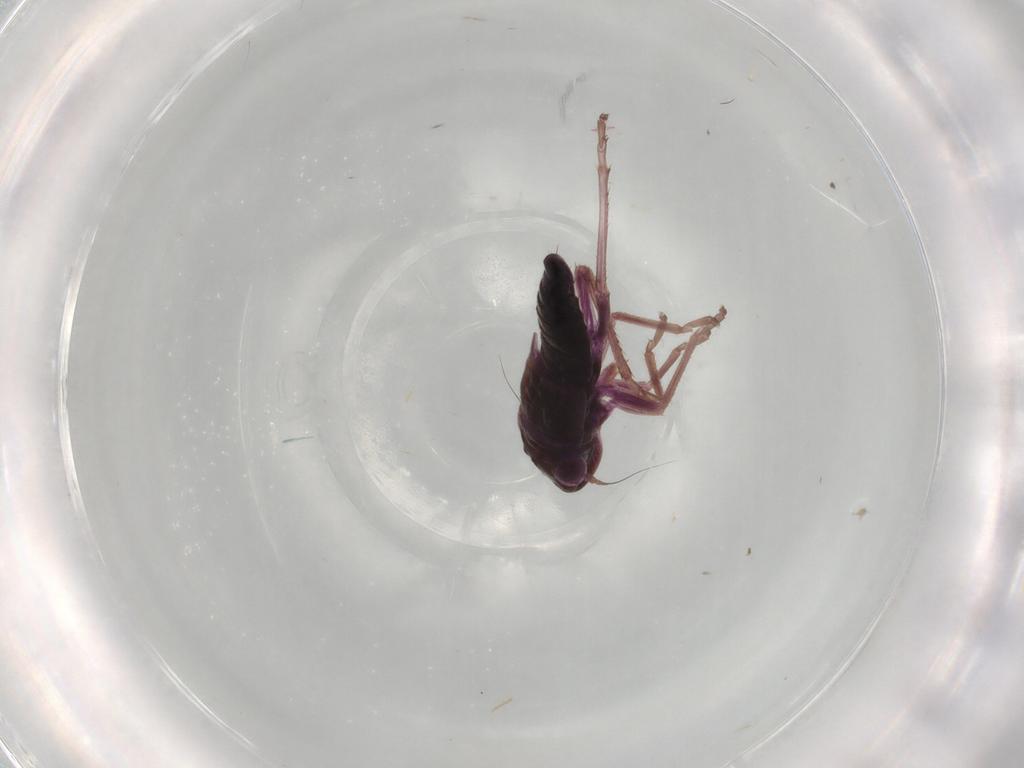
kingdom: Animalia
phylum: Arthropoda
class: Insecta
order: Hemiptera
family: Cicadellidae
